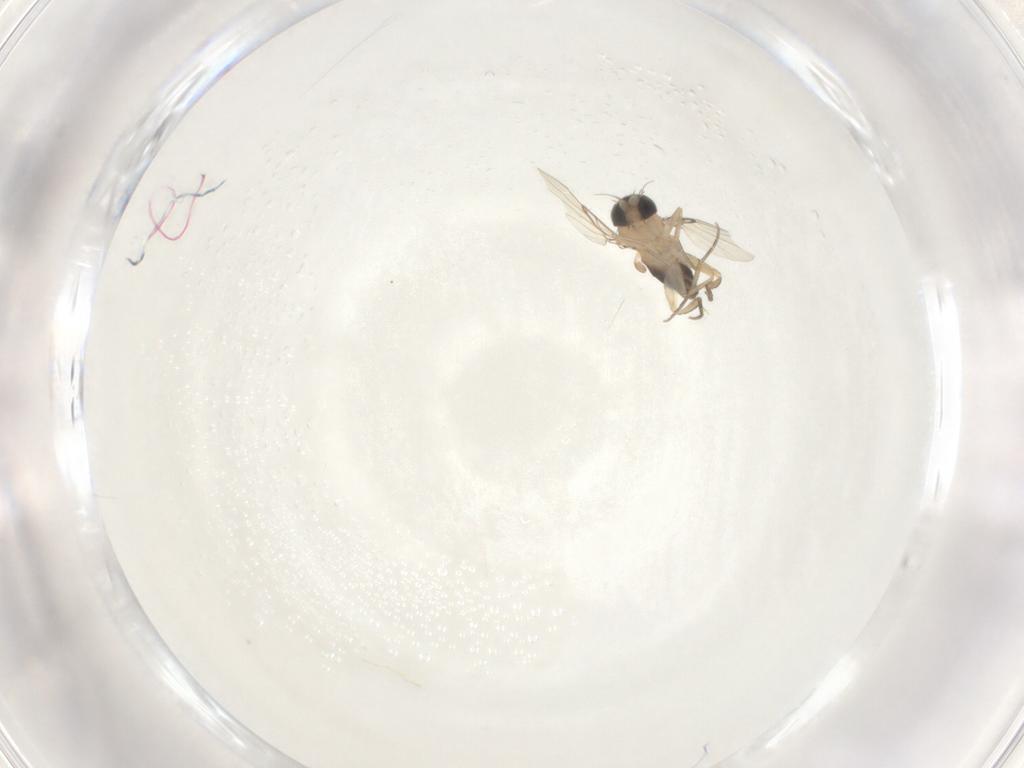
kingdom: Animalia
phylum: Arthropoda
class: Insecta
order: Diptera
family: Phoridae
